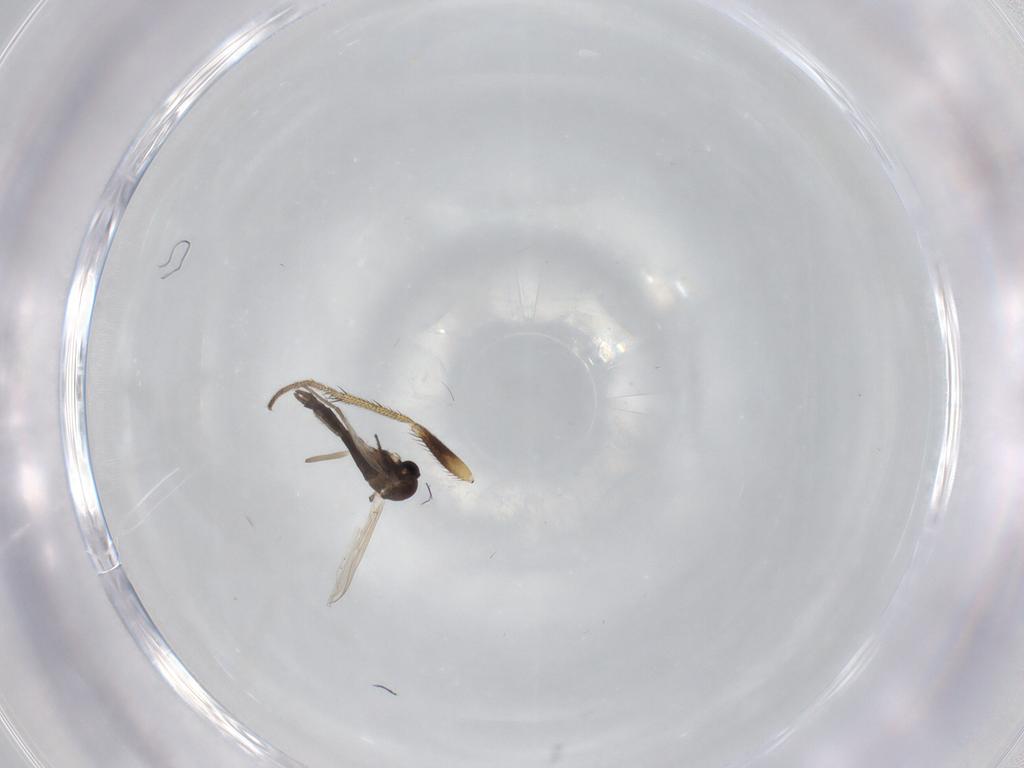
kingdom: Animalia
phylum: Arthropoda
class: Insecta
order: Diptera
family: Chironomidae
